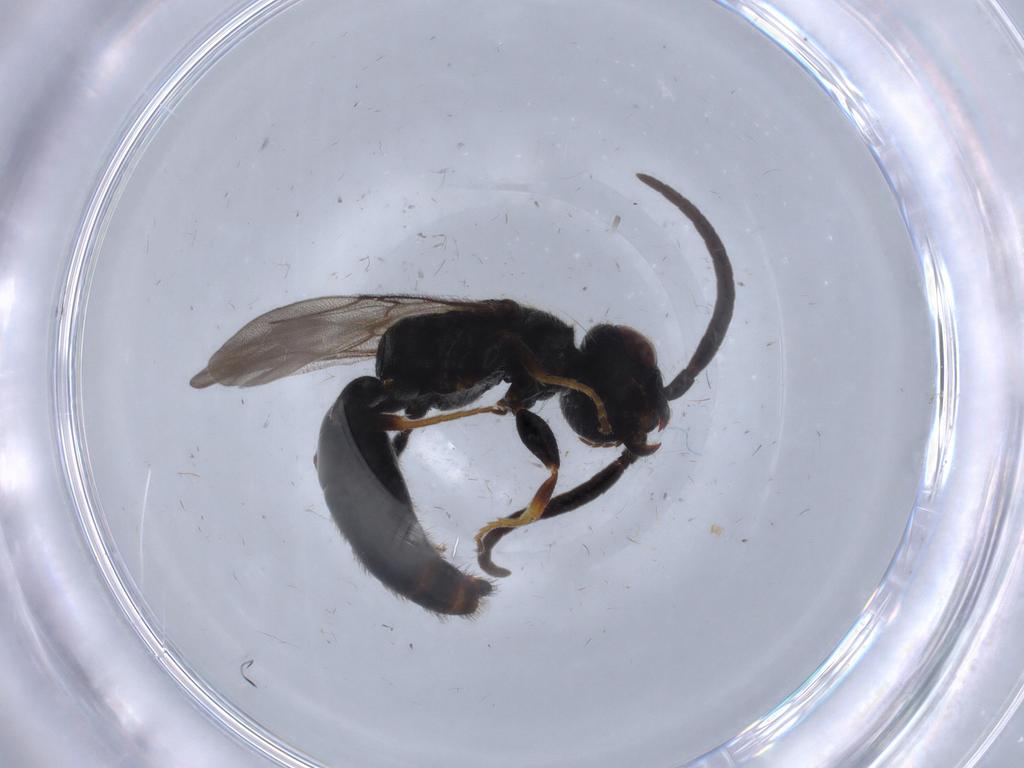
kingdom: Animalia
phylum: Arthropoda
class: Insecta
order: Hymenoptera
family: Bethylidae
